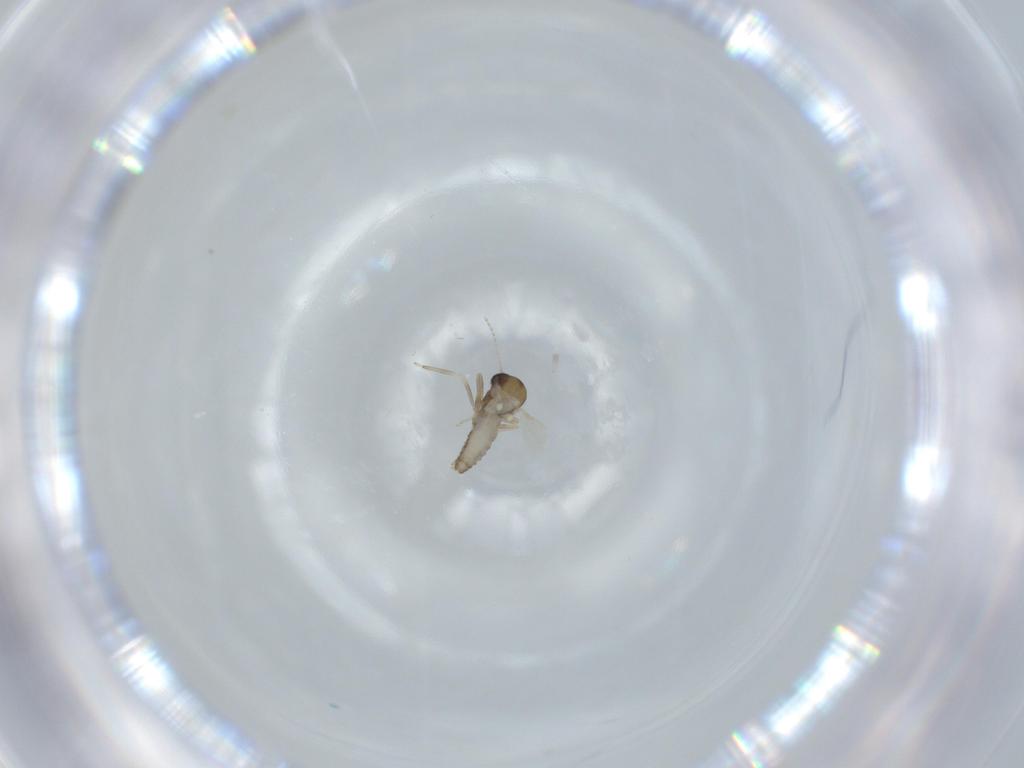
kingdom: Animalia
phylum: Arthropoda
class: Insecta
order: Diptera
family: Ceratopogonidae
